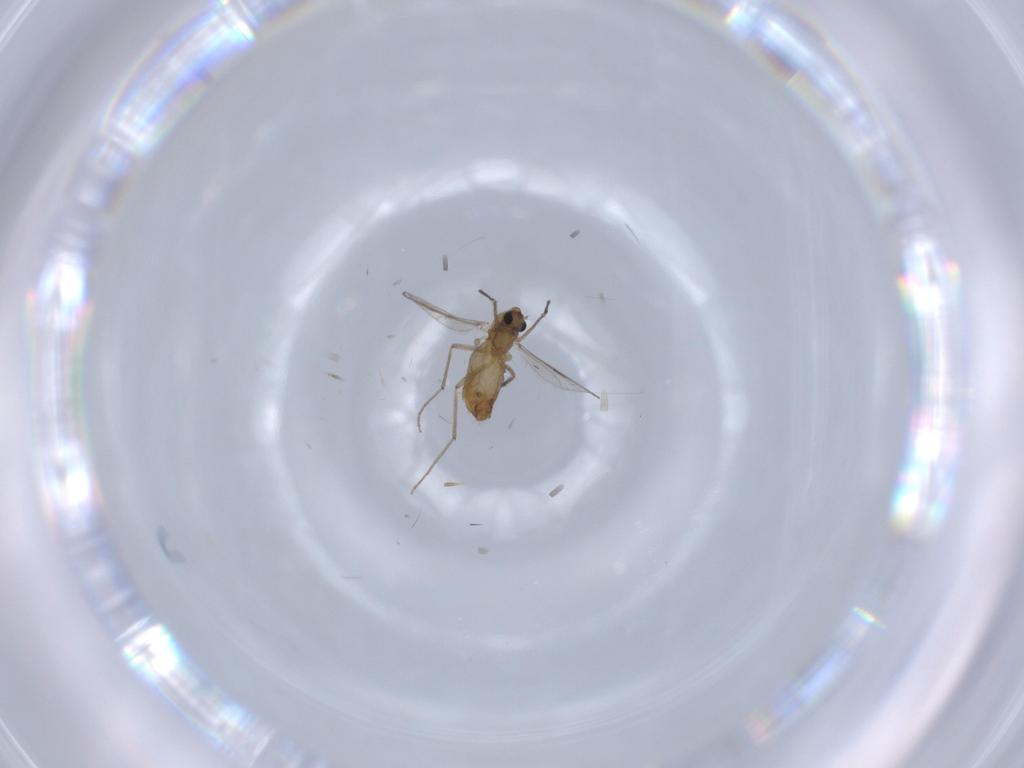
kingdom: Animalia
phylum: Arthropoda
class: Insecta
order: Diptera
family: Chironomidae
